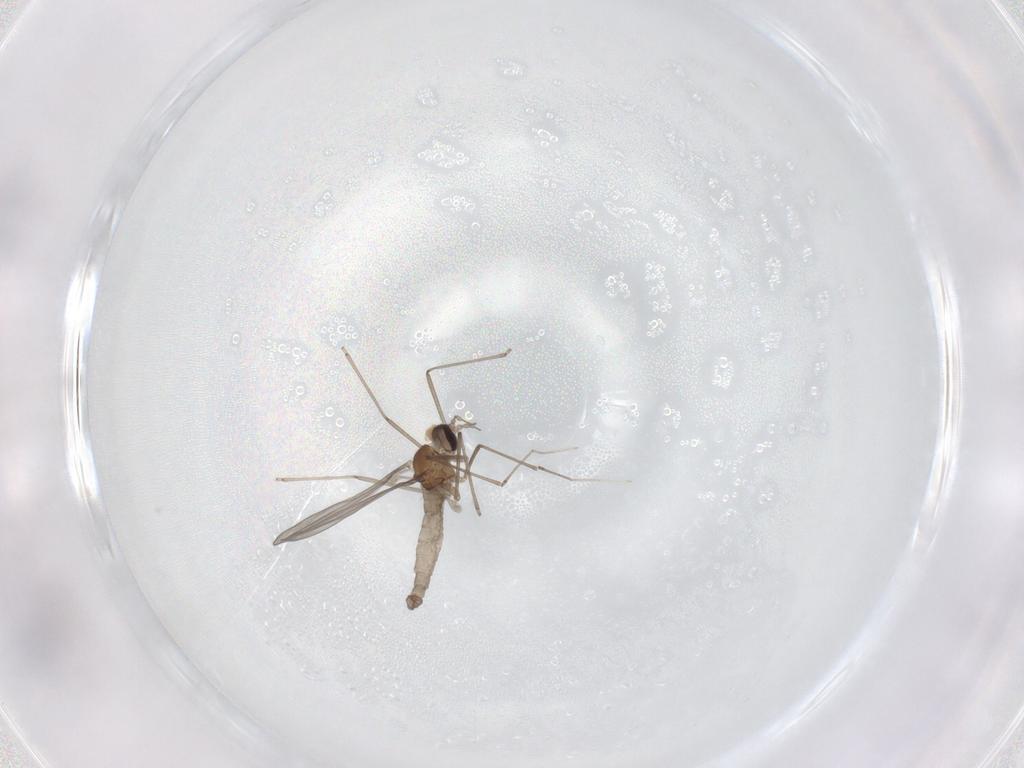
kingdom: Animalia
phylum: Arthropoda
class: Insecta
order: Diptera
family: Cecidomyiidae
